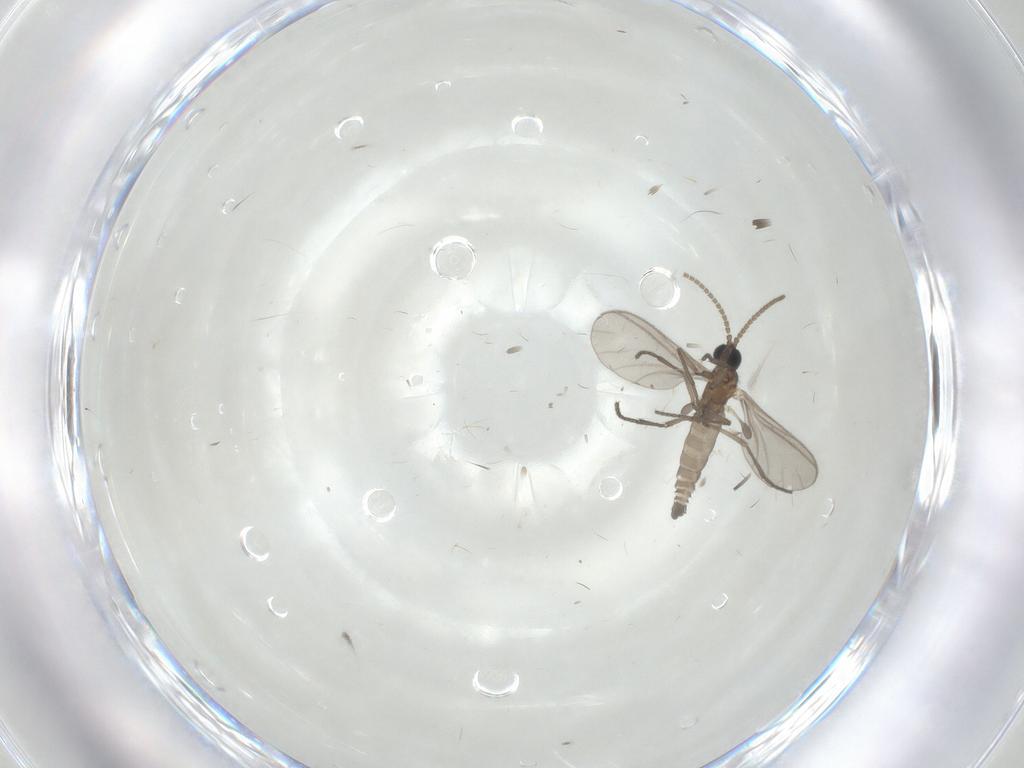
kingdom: Animalia
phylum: Arthropoda
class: Insecta
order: Diptera
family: Sciaridae
